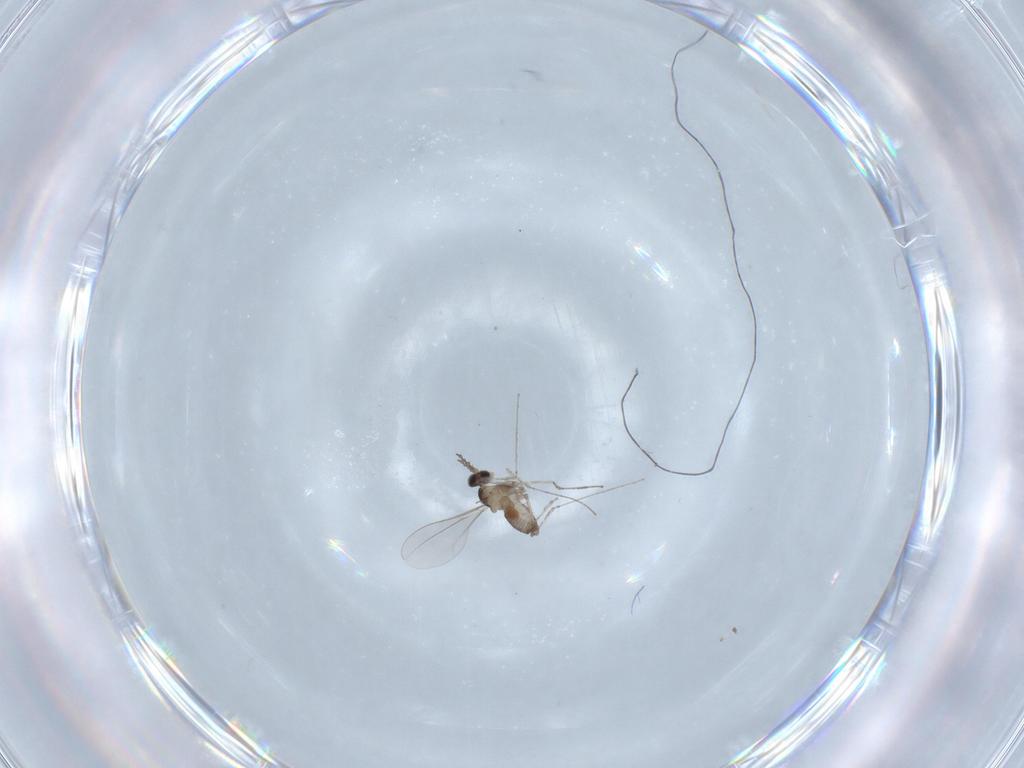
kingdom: Animalia
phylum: Arthropoda
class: Insecta
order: Diptera
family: Cecidomyiidae
